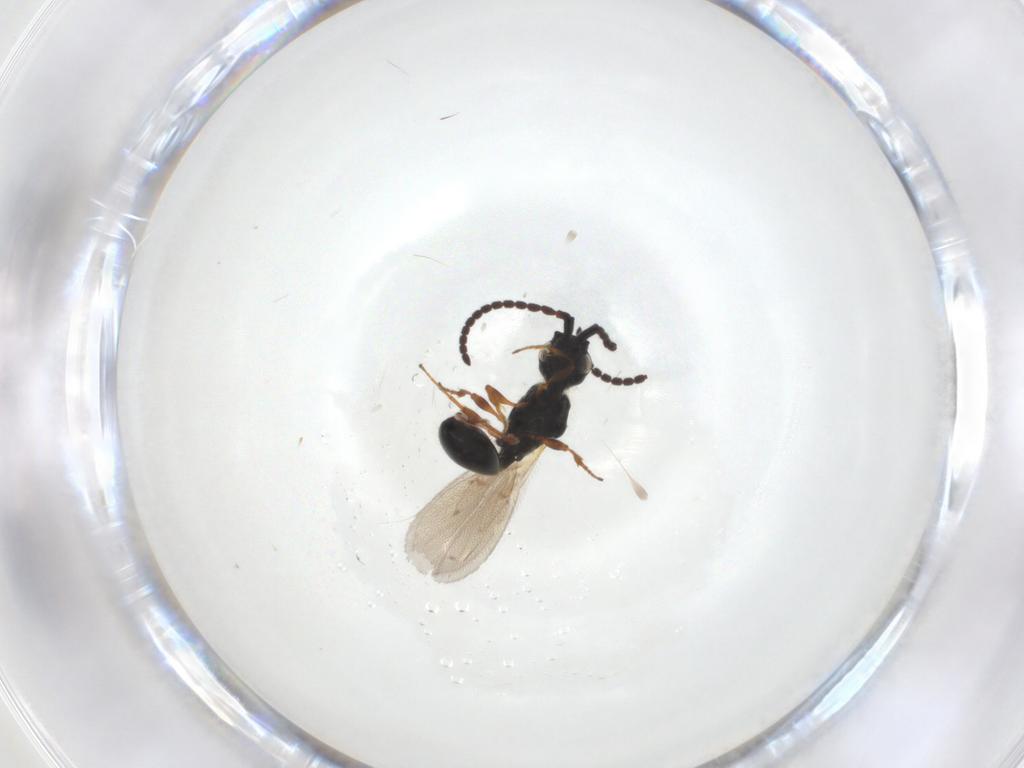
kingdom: Animalia
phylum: Arthropoda
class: Insecta
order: Hymenoptera
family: Diapriidae
